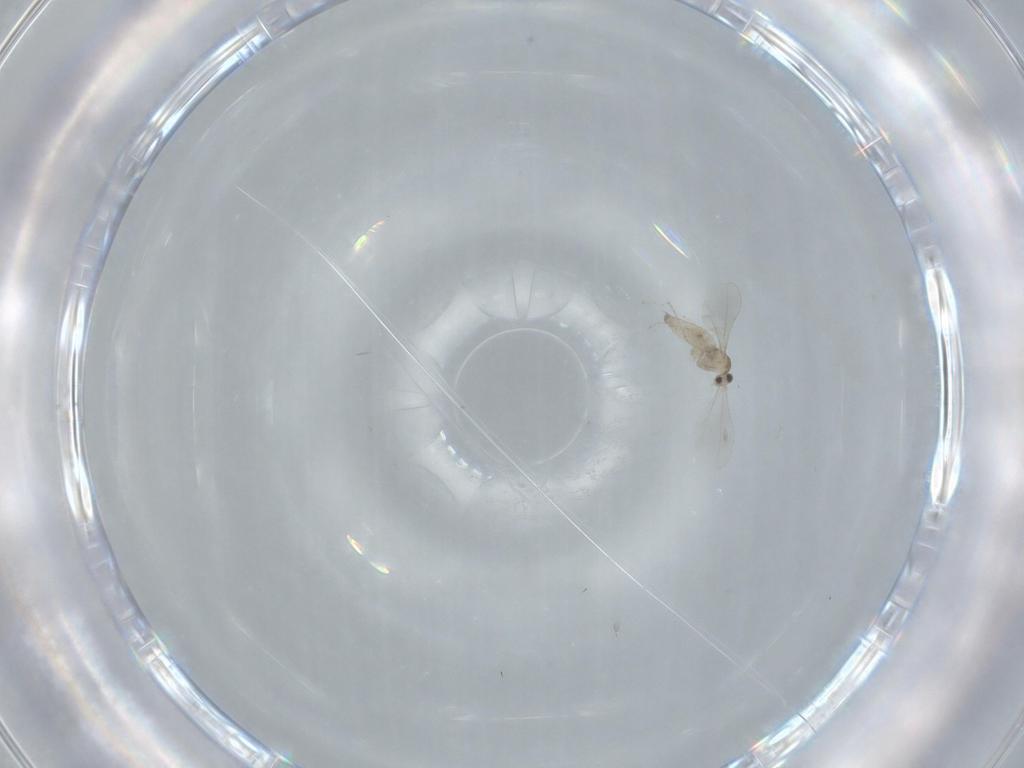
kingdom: Animalia
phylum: Arthropoda
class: Insecta
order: Diptera
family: Cecidomyiidae
